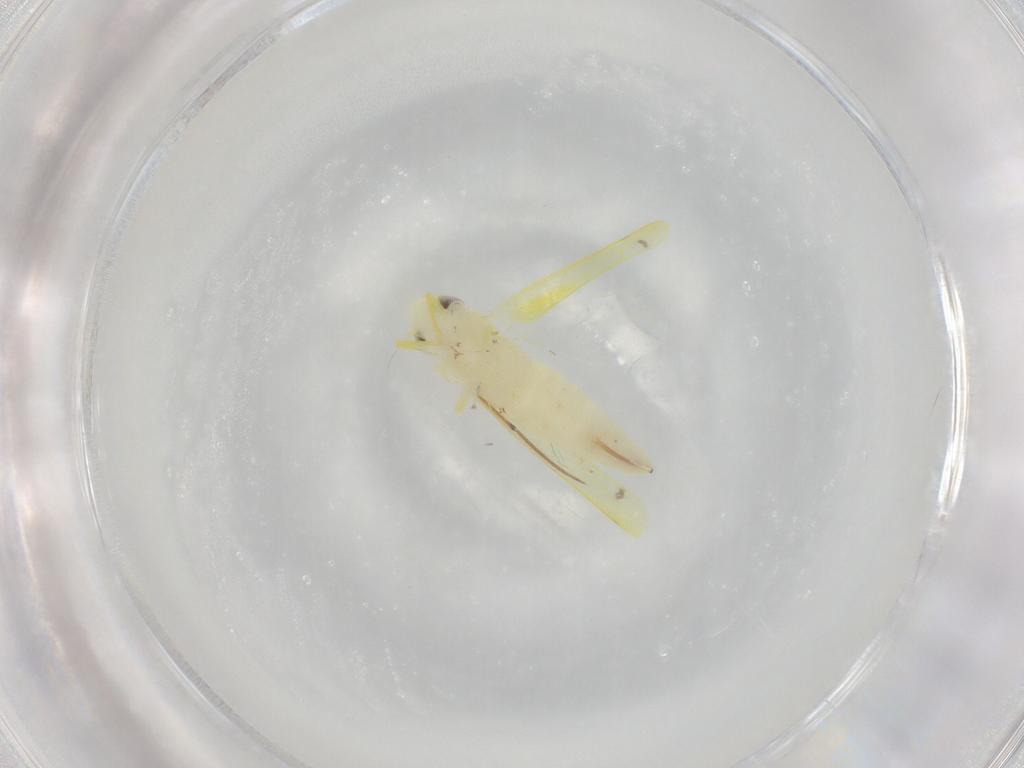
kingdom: Animalia
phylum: Arthropoda
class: Insecta
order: Hemiptera
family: Cicadellidae
